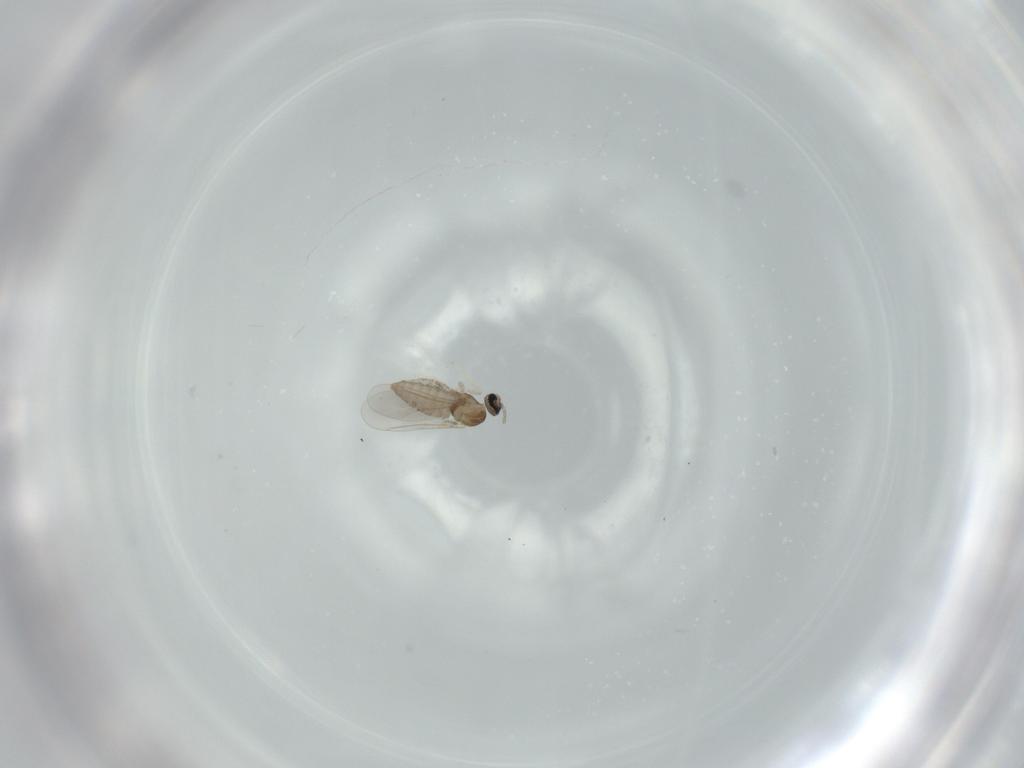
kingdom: Animalia
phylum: Arthropoda
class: Insecta
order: Diptera
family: Cecidomyiidae
